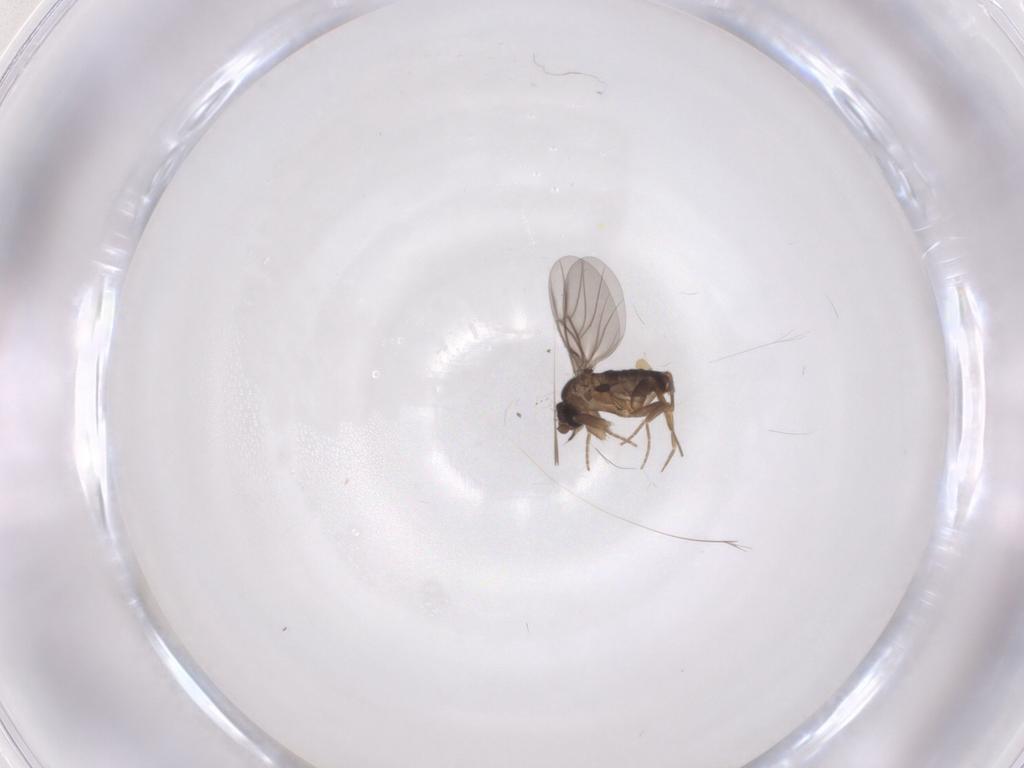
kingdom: Animalia
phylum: Arthropoda
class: Insecta
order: Diptera
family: Phoridae
